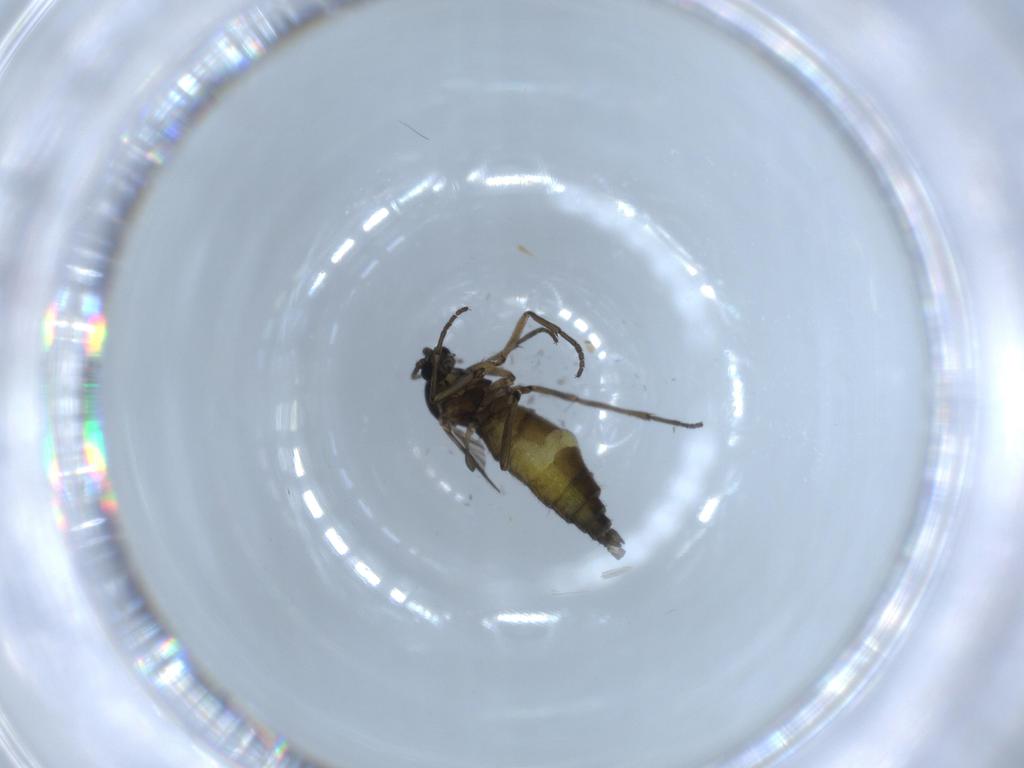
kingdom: Animalia
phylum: Arthropoda
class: Insecta
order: Diptera
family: Sciaridae
